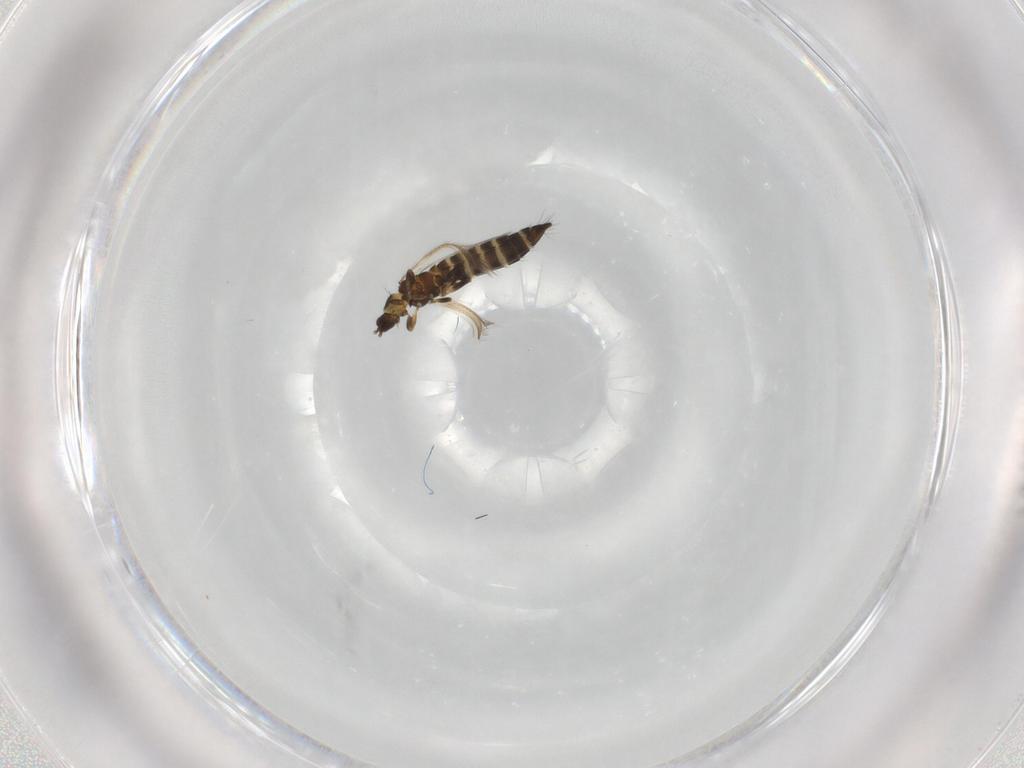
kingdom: Animalia
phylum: Arthropoda
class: Insecta
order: Thysanoptera
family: Thripidae
